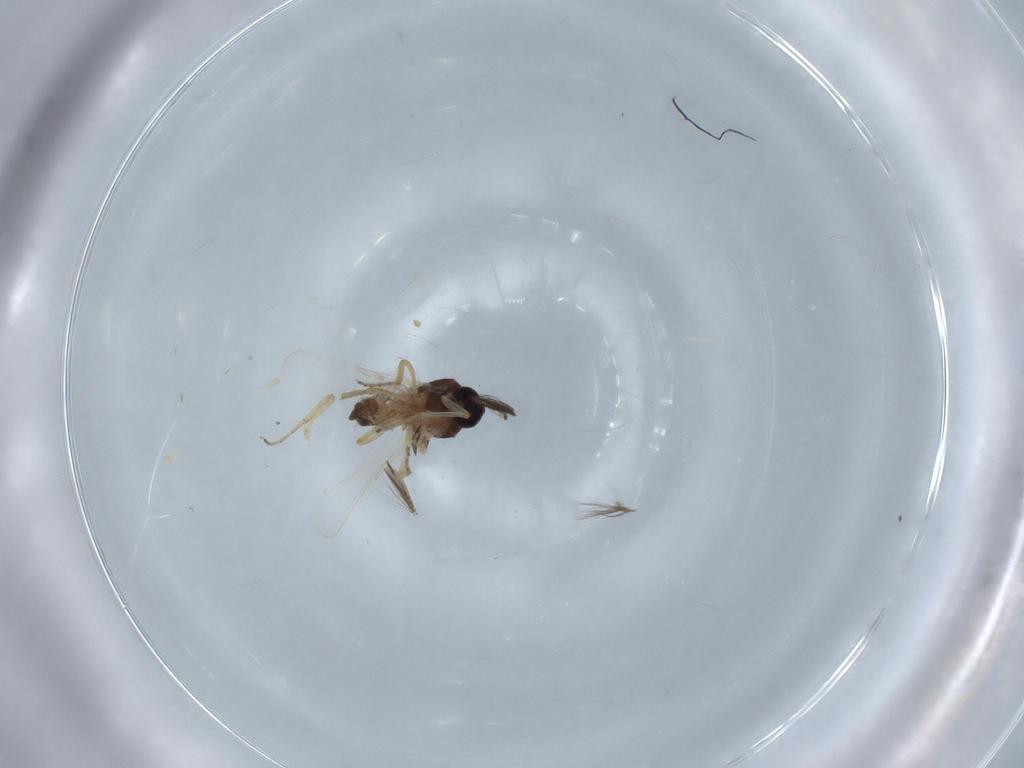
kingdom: Animalia
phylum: Arthropoda
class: Insecta
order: Diptera
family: Ceratopogonidae
